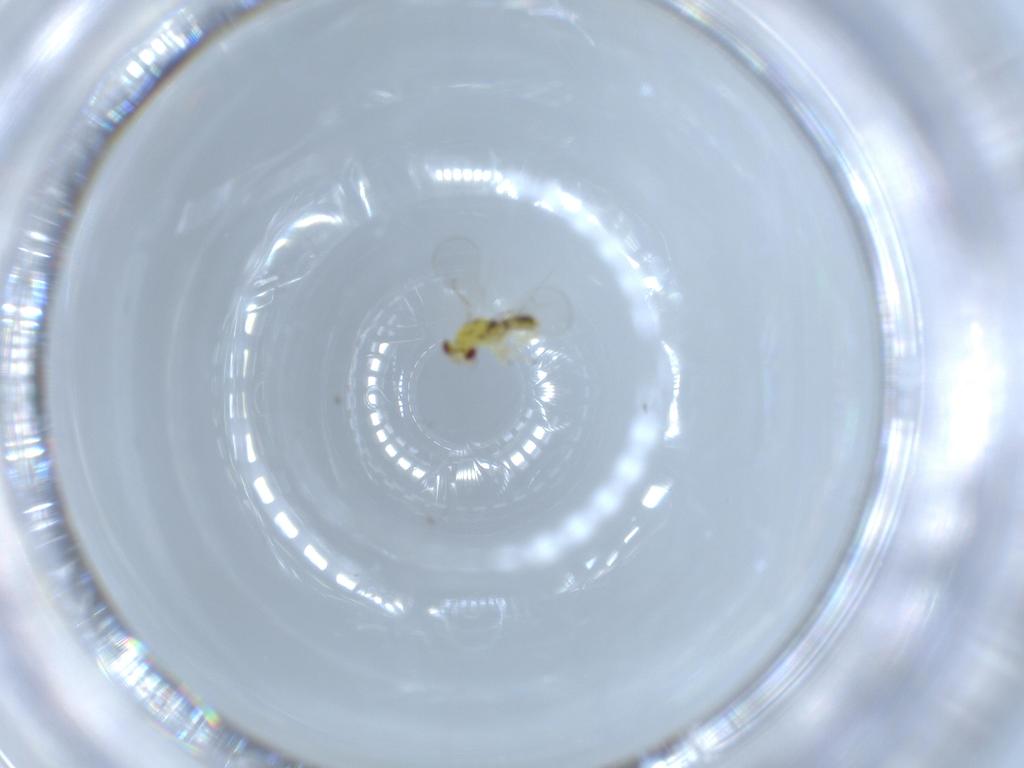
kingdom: Animalia
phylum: Arthropoda
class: Insecta
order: Hymenoptera
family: Eulophidae
